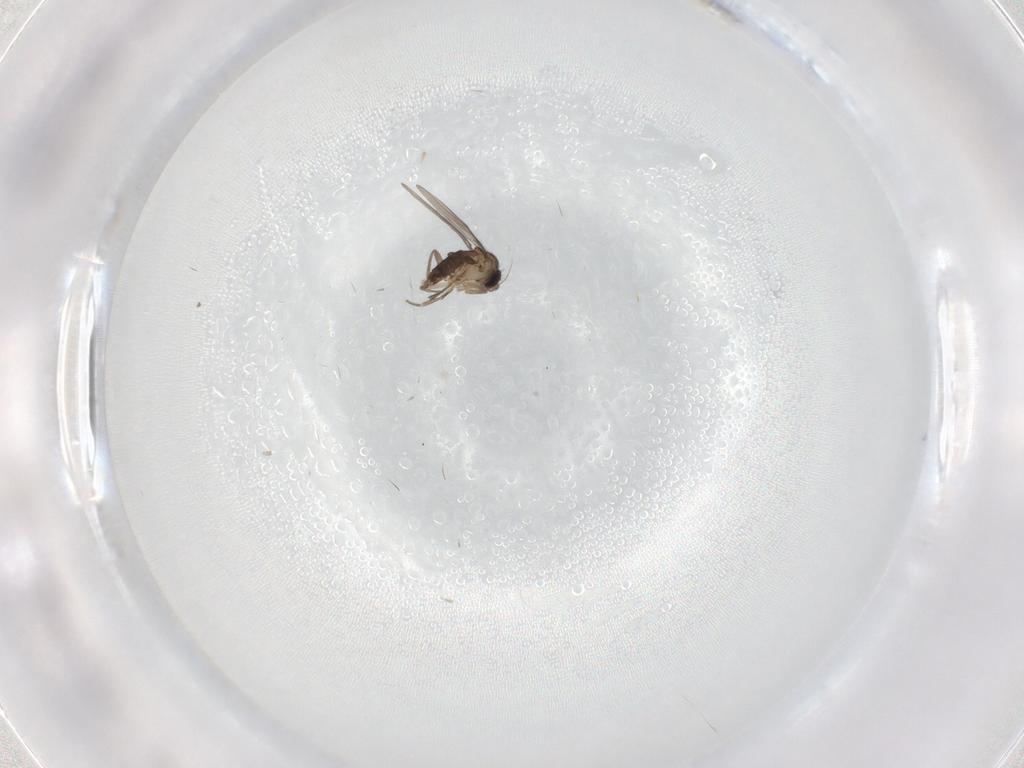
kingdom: Animalia
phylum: Arthropoda
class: Insecta
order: Diptera
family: Phoridae
